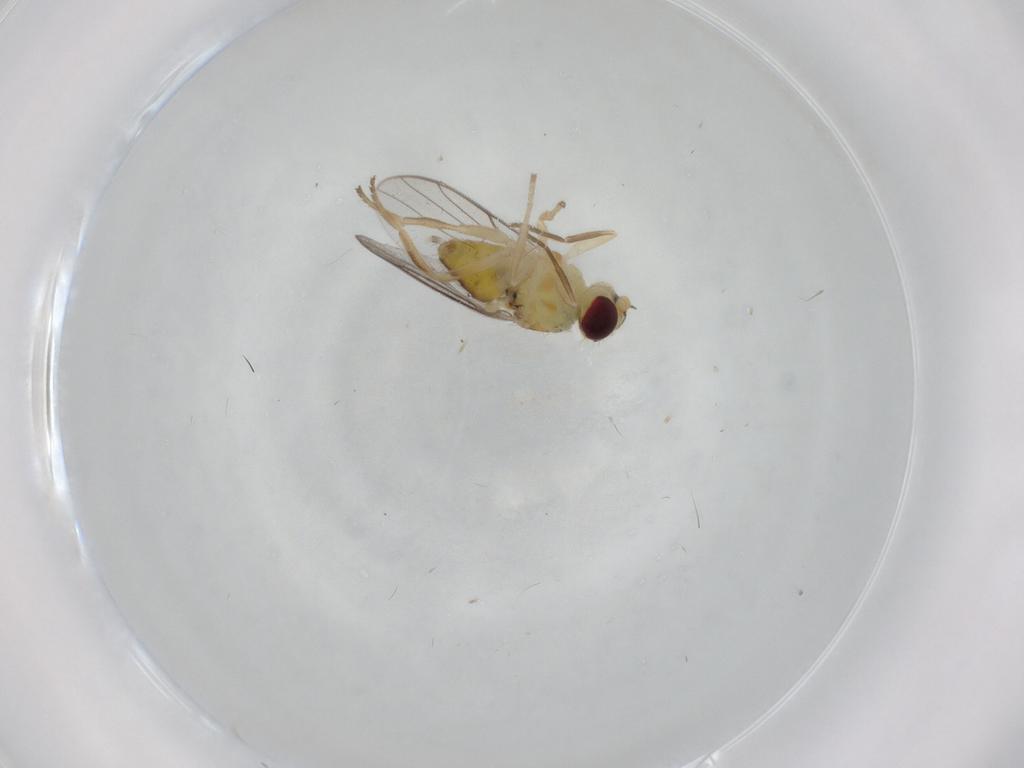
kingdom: Animalia
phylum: Arthropoda
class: Insecta
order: Diptera
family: Chloropidae
